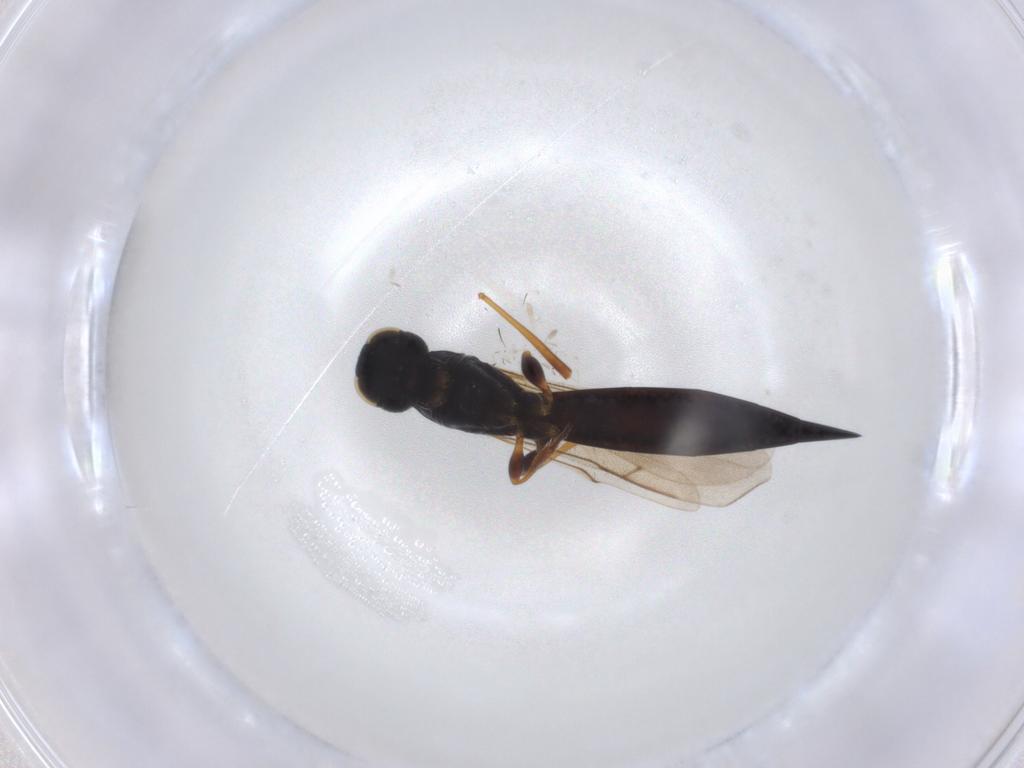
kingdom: Animalia
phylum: Arthropoda
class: Insecta
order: Hymenoptera
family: Scelionidae
